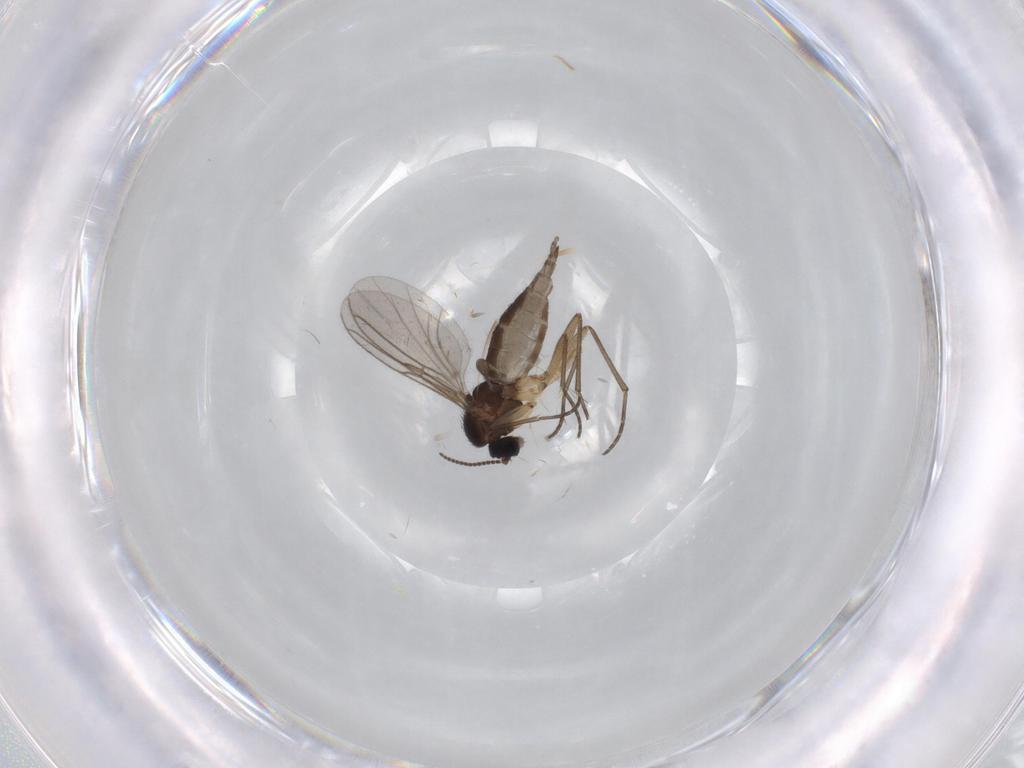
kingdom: Animalia
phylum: Arthropoda
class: Insecta
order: Diptera
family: Sciaridae
